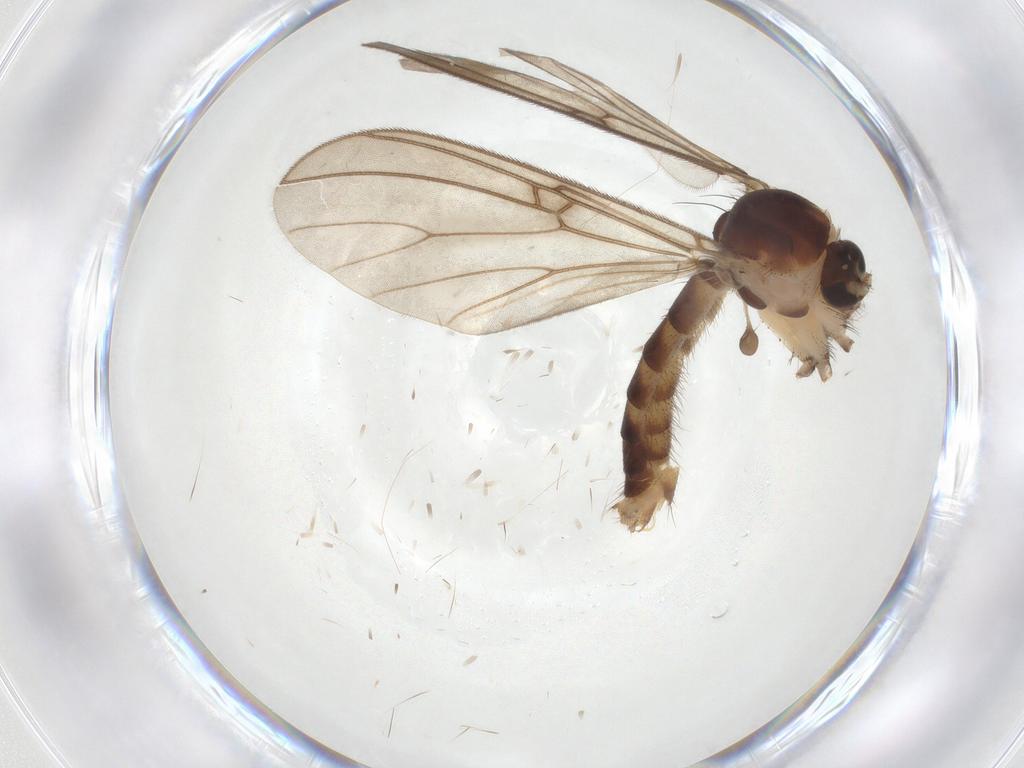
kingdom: Animalia
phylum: Arthropoda
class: Insecta
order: Diptera
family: Mycetophilidae
